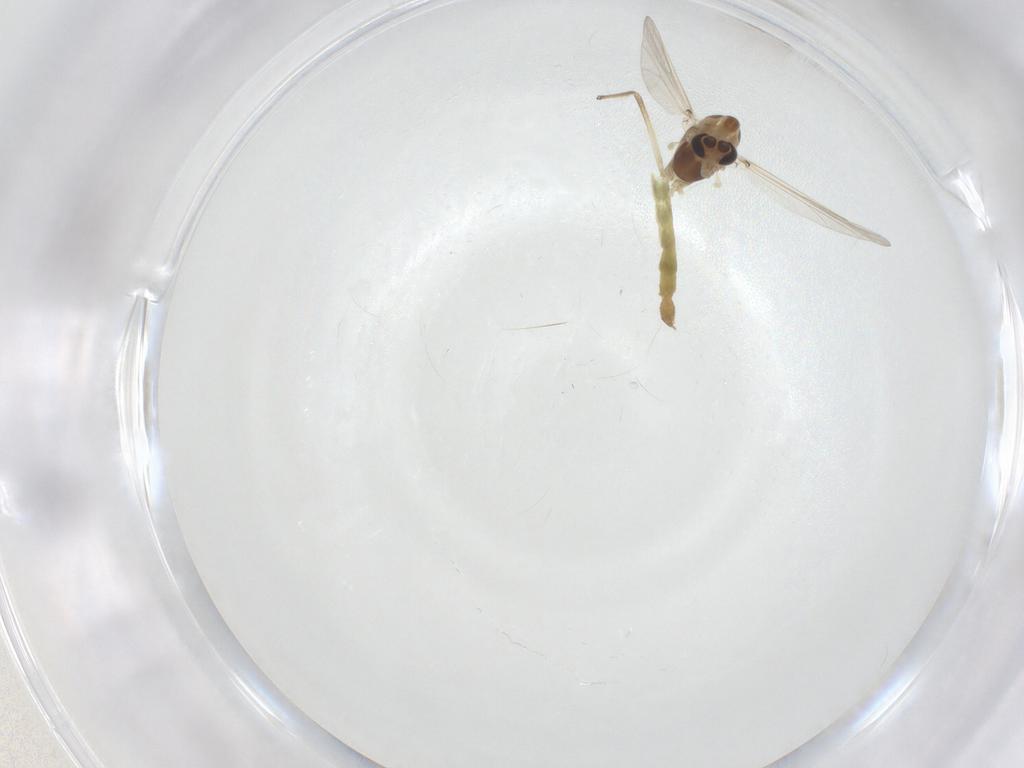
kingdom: Animalia
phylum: Arthropoda
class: Insecta
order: Diptera
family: Chironomidae
